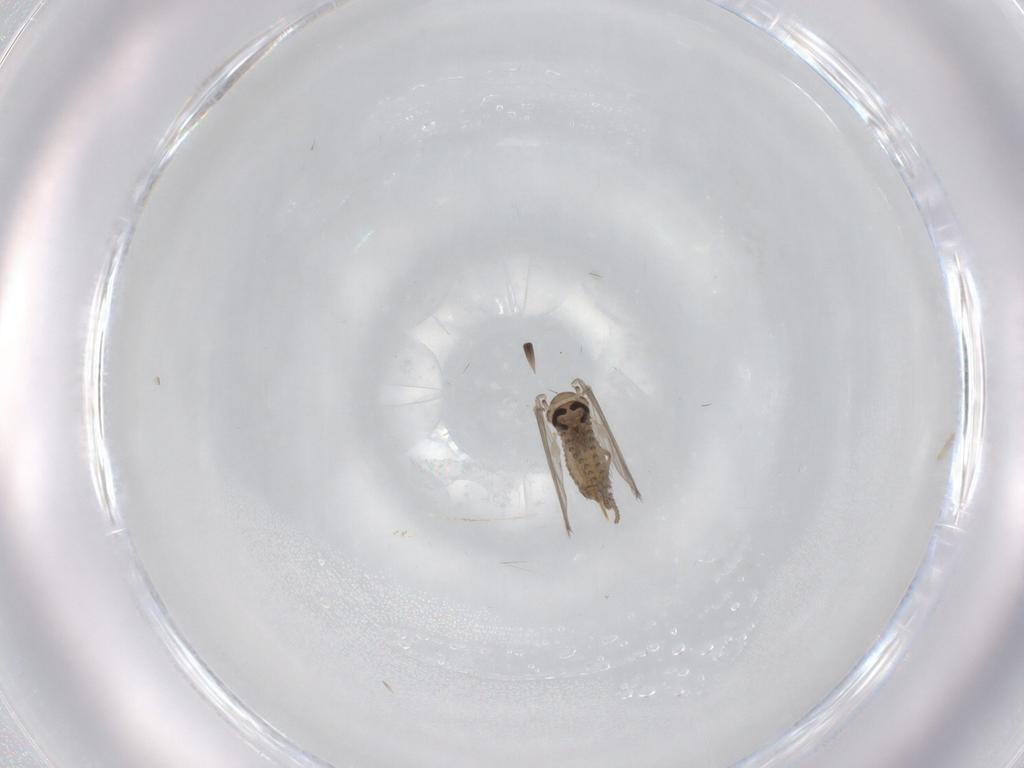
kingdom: Animalia
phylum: Arthropoda
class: Insecta
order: Diptera
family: Psychodidae
